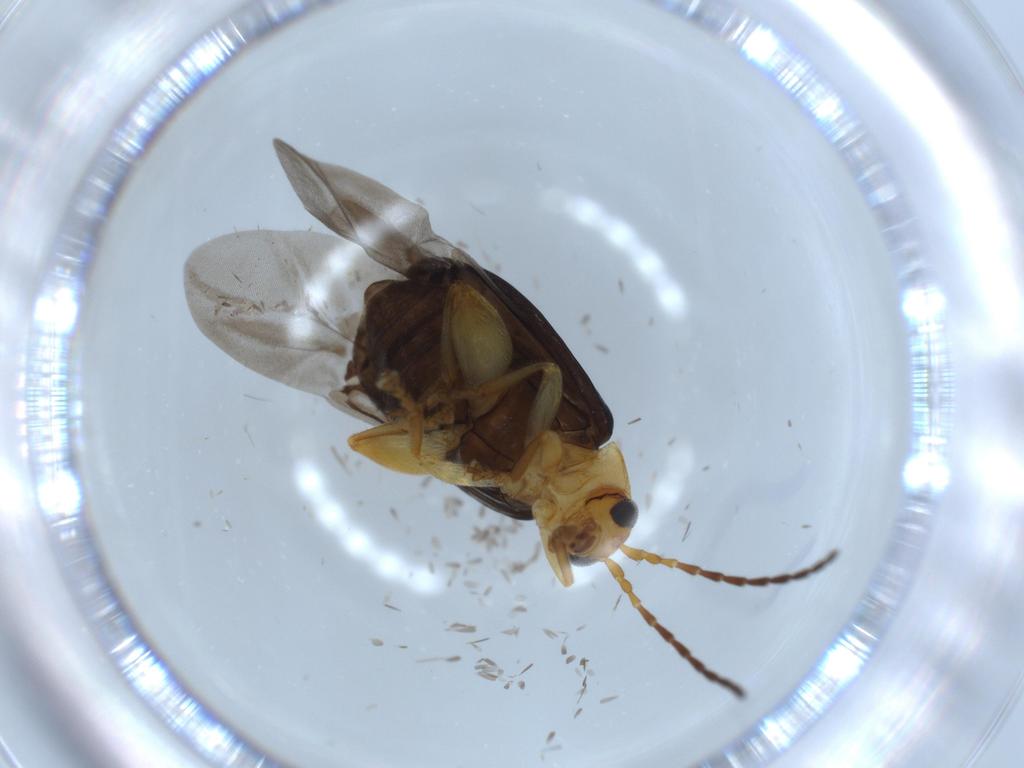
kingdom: Animalia
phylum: Arthropoda
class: Insecta
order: Coleoptera
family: Chrysomelidae
